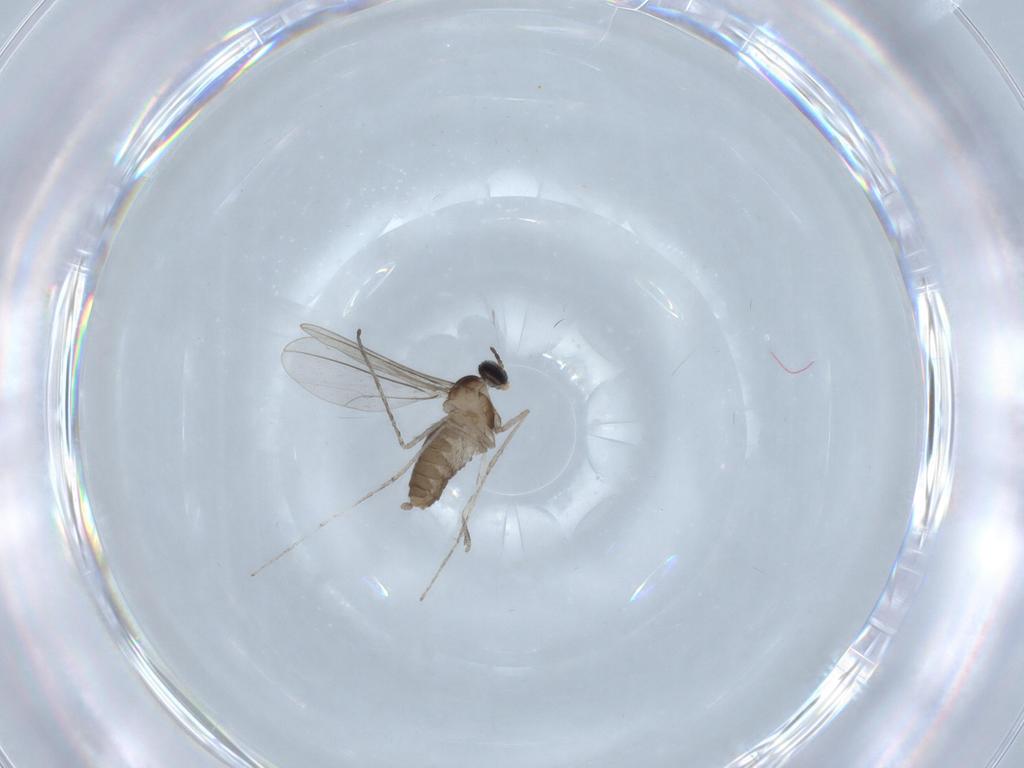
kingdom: Animalia
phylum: Arthropoda
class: Insecta
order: Diptera
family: Cecidomyiidae
